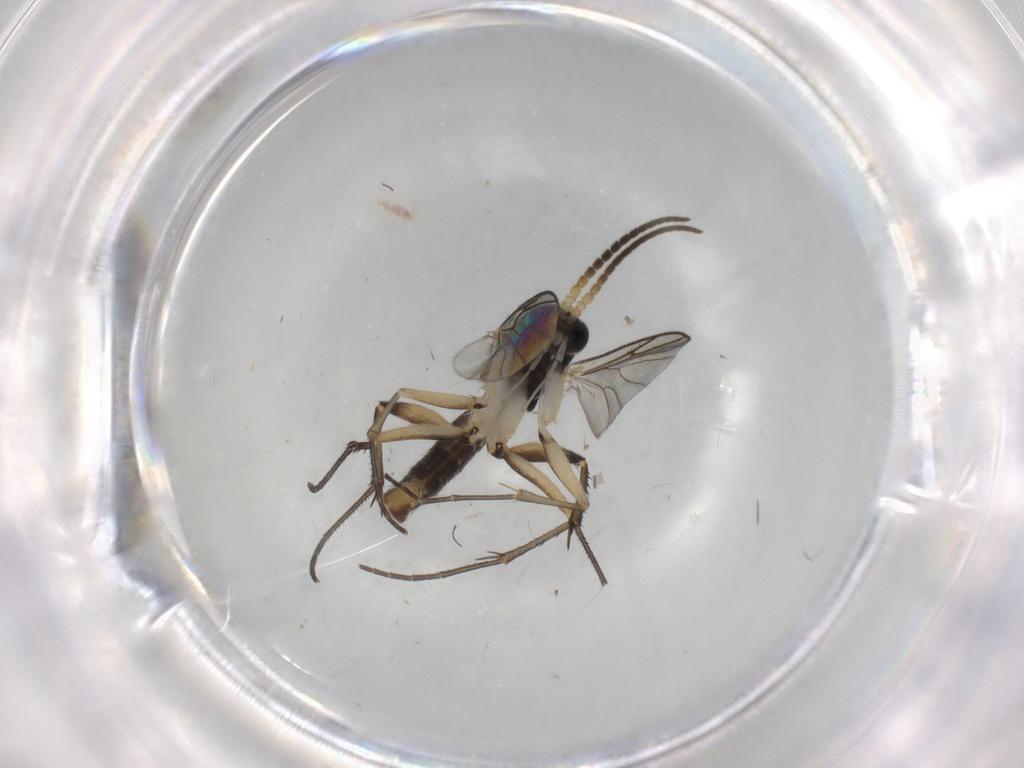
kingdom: Animalia
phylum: Arthropoda
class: Insecta
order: Diptera
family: Mycetophilidae
